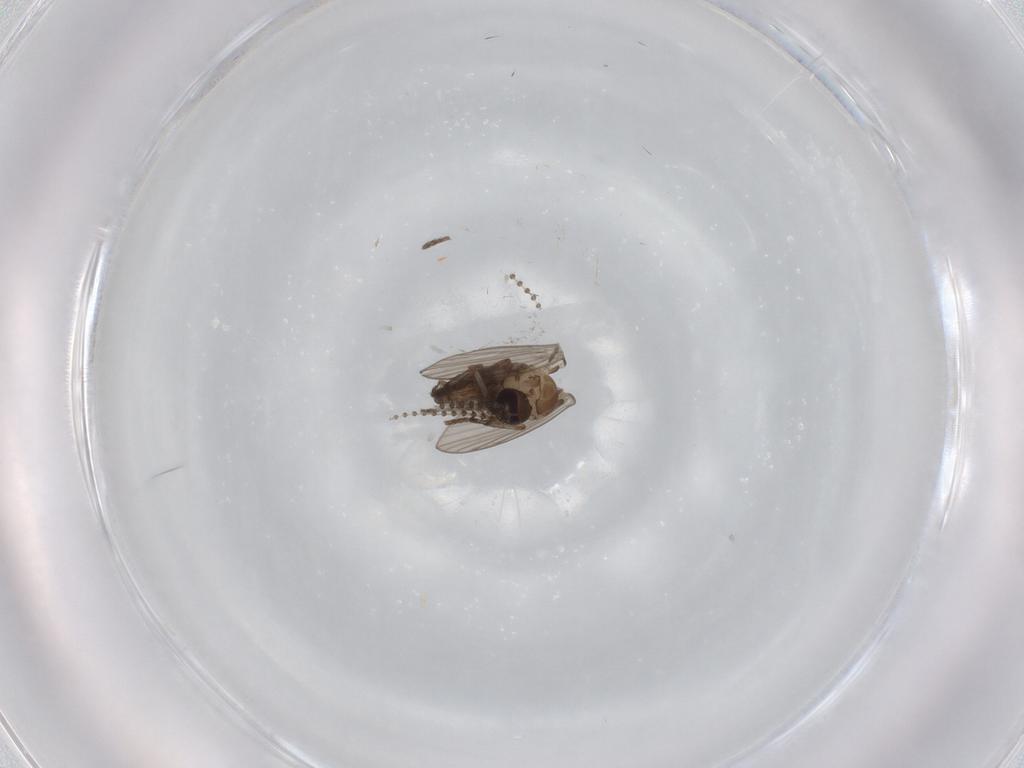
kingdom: Animalia
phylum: Arthropoda
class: Insecta
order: Diptera
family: Psychodidae
